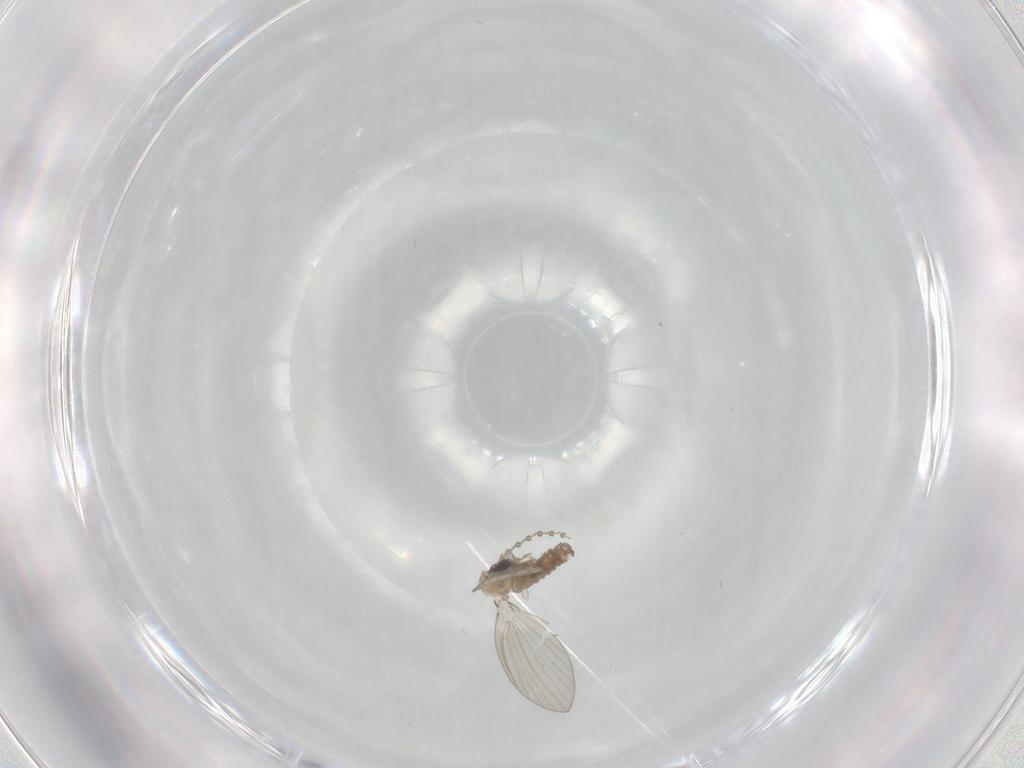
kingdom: Animalia
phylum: Arthropoda
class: Insecta
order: Diptera
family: Psychodidae
